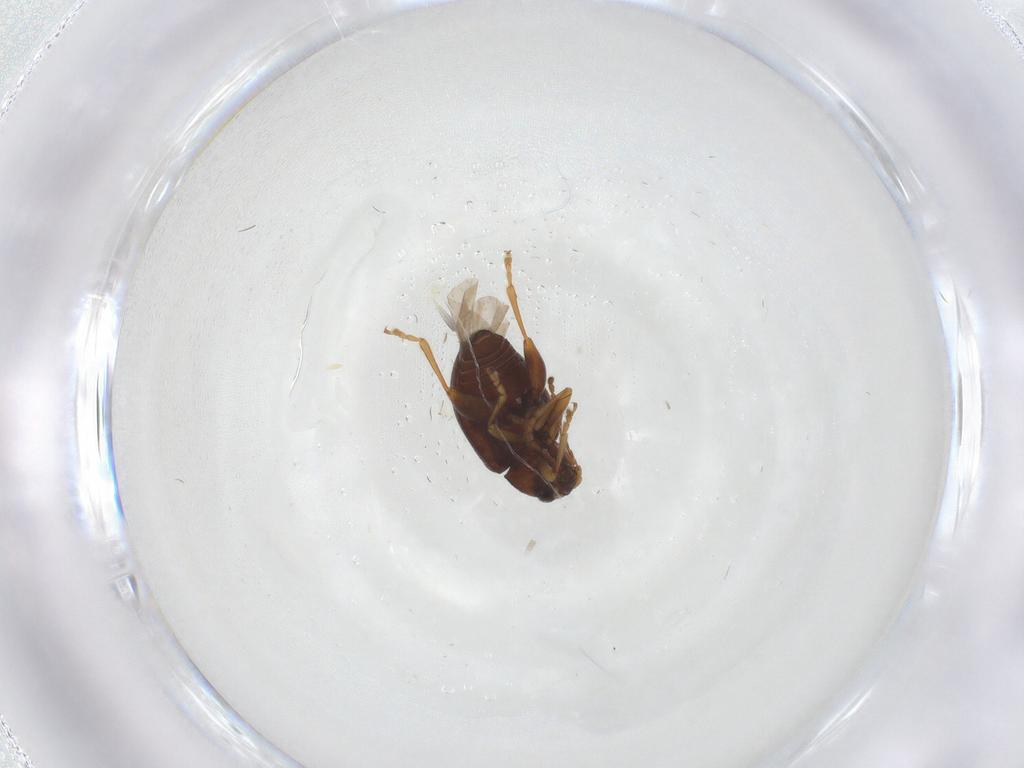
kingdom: Animalia
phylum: Arthropoda
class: Insecta
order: Coleoptera
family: Chrysomelidae
